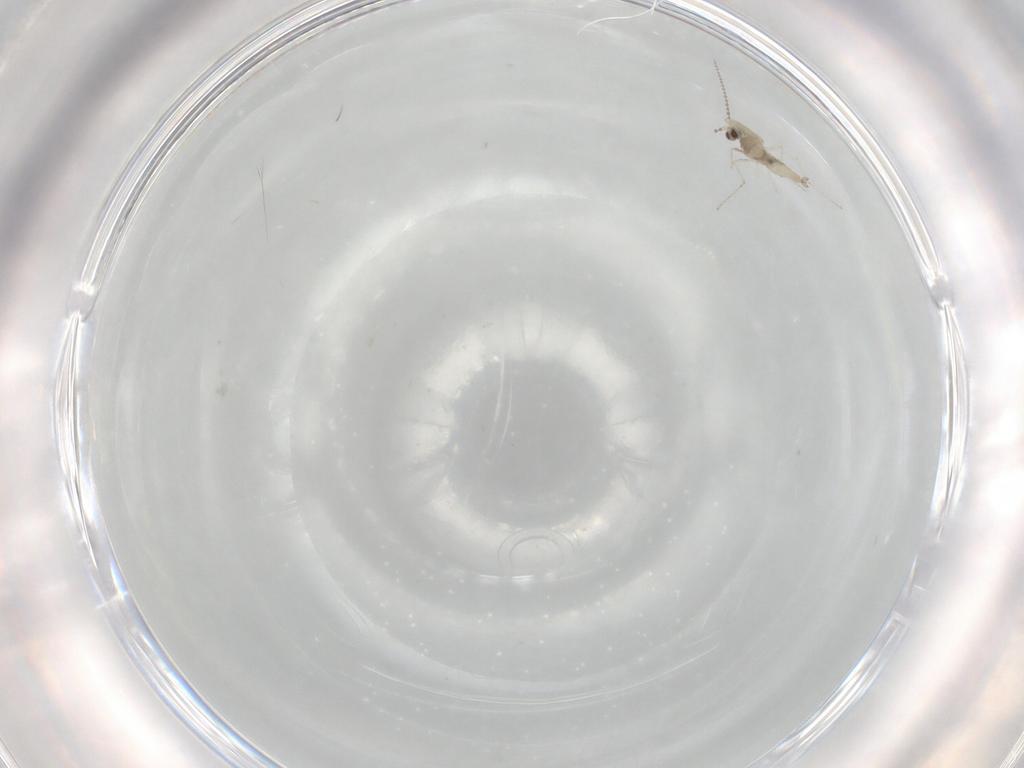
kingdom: Animalia
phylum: Arthropoda
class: Insecta
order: Diptera
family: Cecidomyiidae
